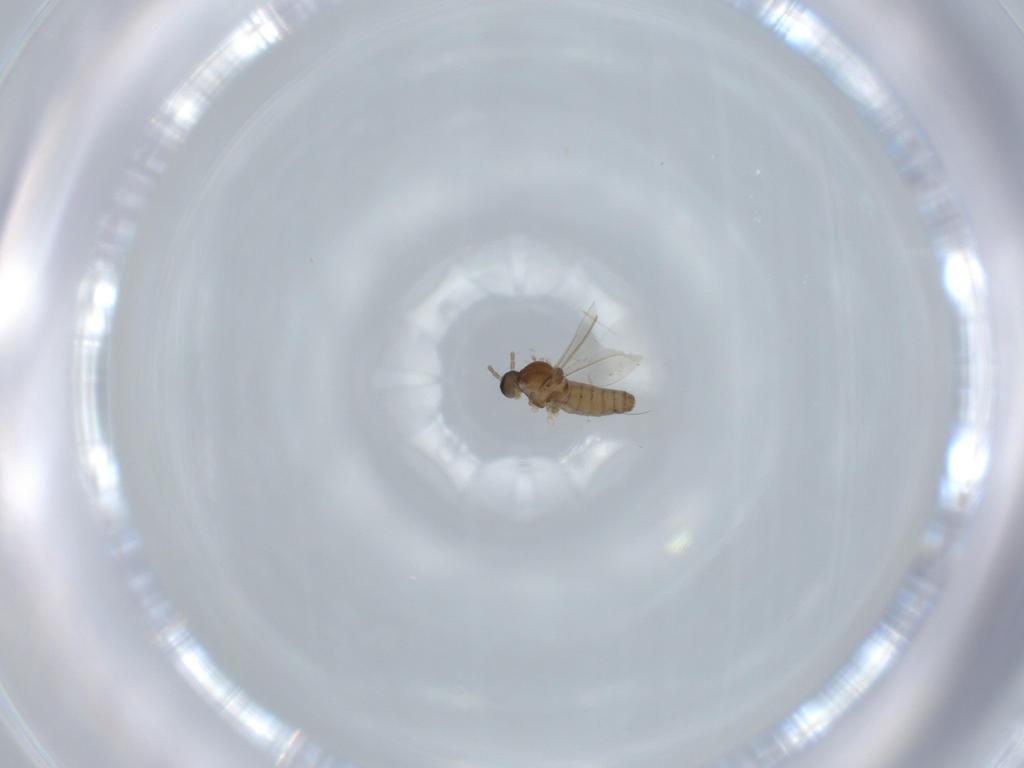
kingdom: Animalia
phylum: Arthropoda
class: Insecta
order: Diptera
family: Cecidomyiidae
